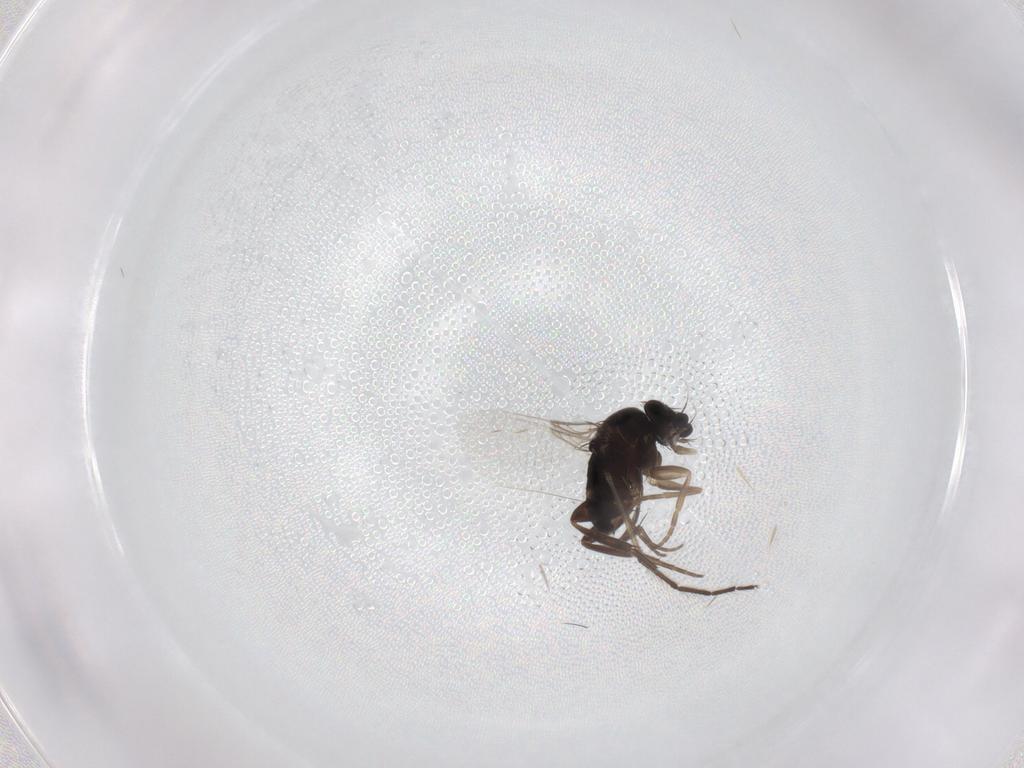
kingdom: Animalia
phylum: Arthropoda
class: Insecta
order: Diptera
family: Phoridae
